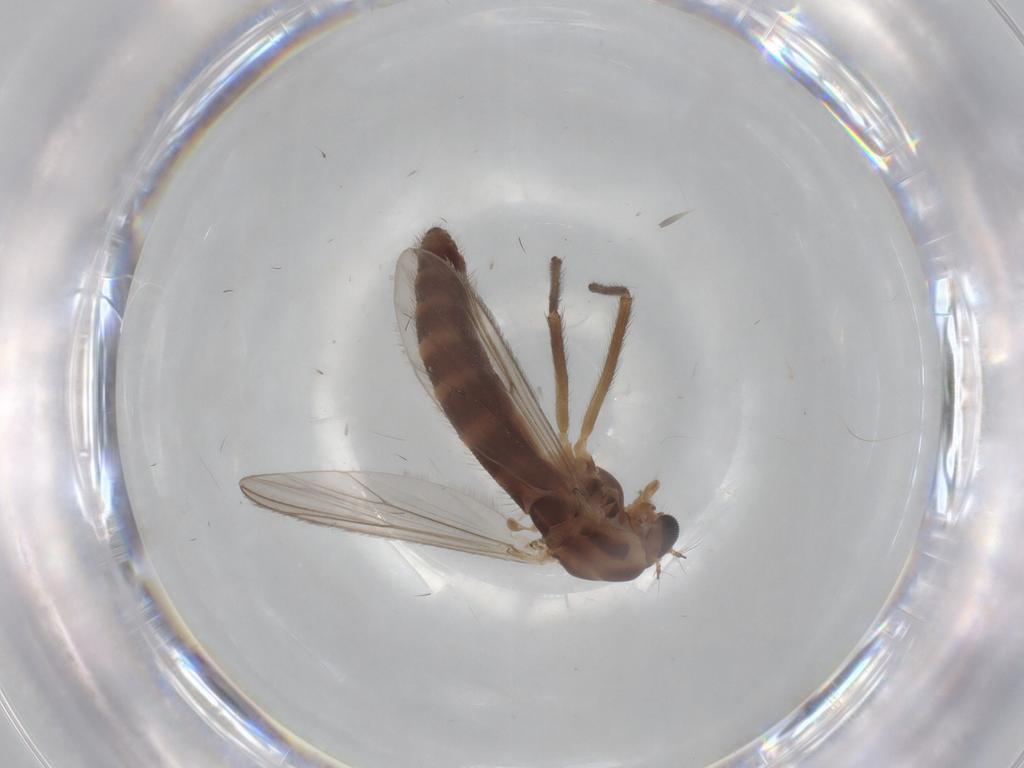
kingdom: Animalia
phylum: Arthropoda
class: Insecta
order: Diptera
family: Chironomidae
